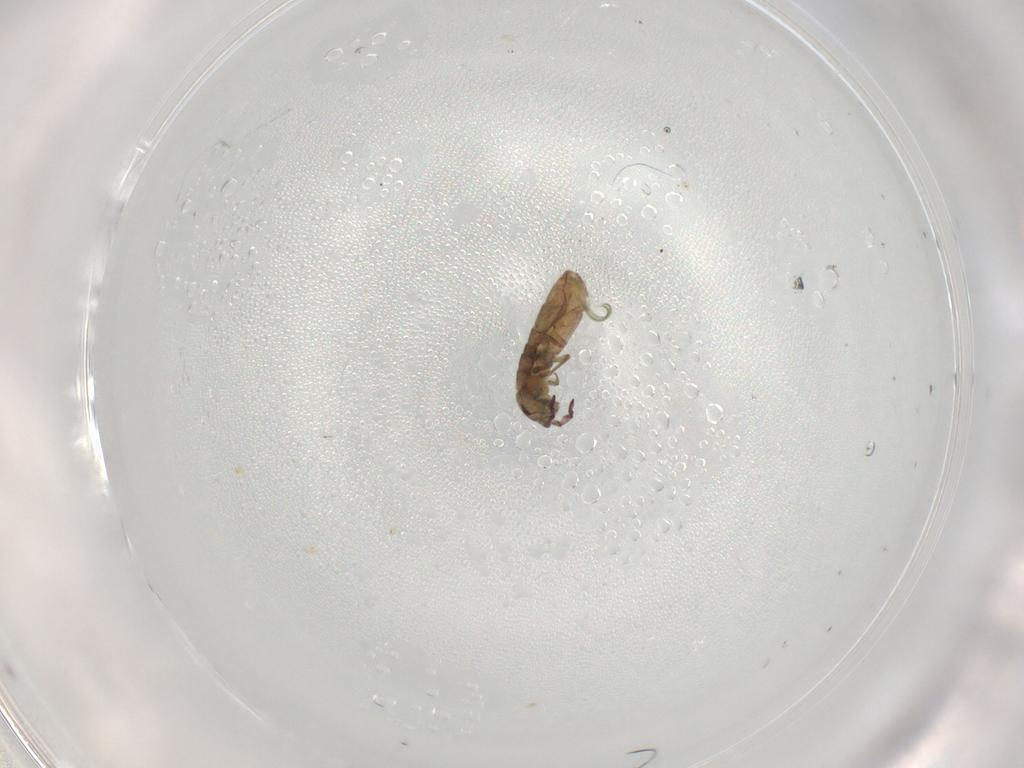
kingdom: Animalia
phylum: Arthropoda
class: Collembola
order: Entomobryomorpha
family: Isotomidae
